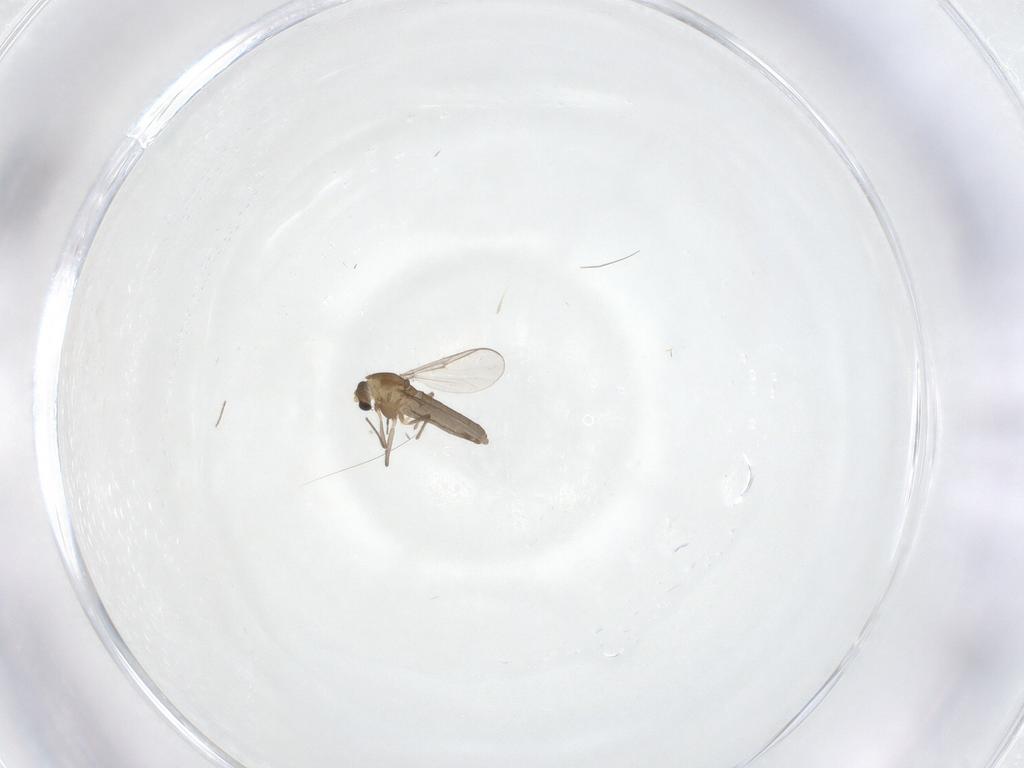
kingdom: Animalia
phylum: Arthropoda
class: Insecta
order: Diptera
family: Chironomidae
